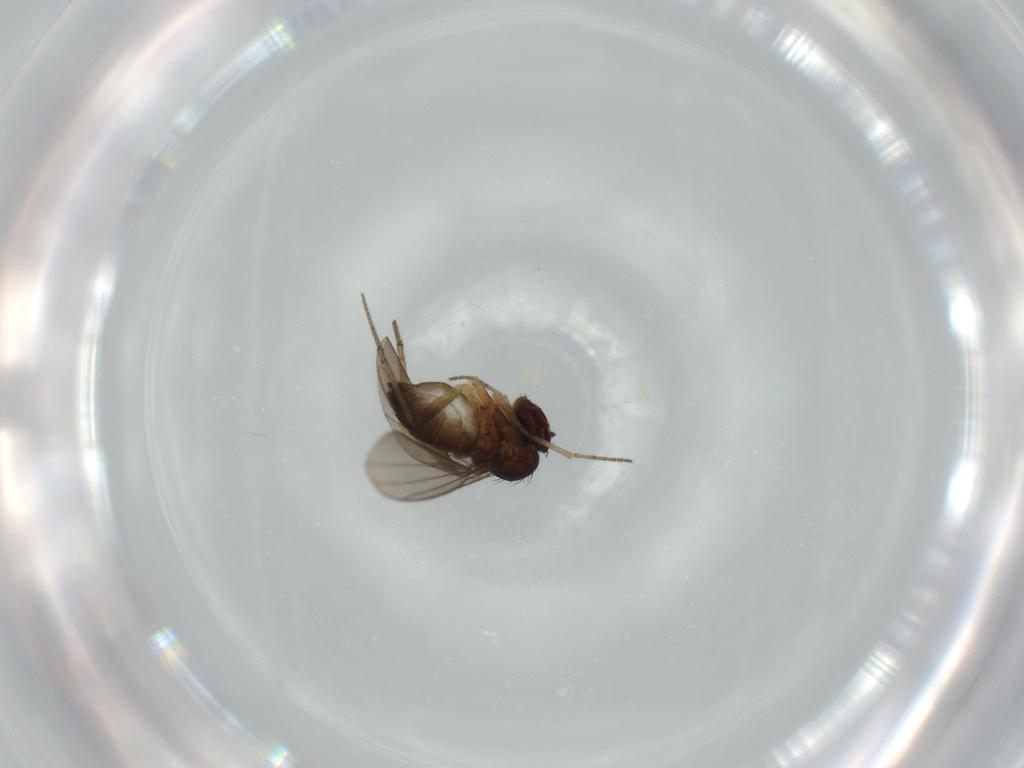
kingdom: Animalia
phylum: Arthropoda
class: Insecta
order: Diptera
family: Dolichopodidae
